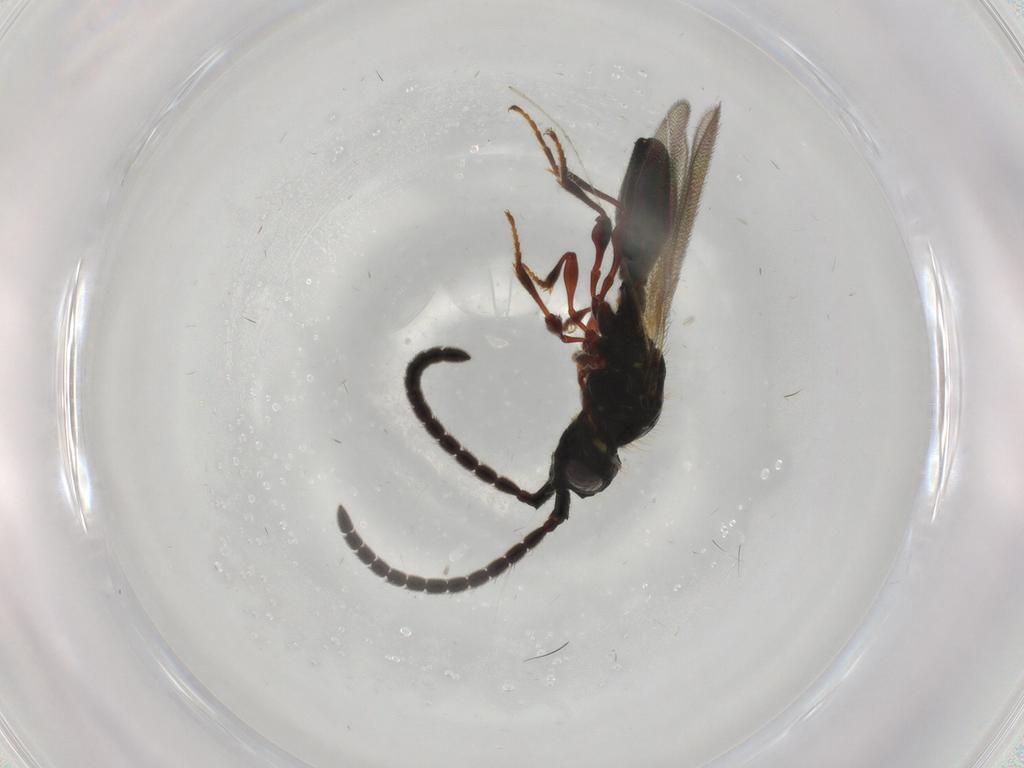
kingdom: Animalia
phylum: Arthropoda
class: Insecta
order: Hymenoptera
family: Diapriidae
